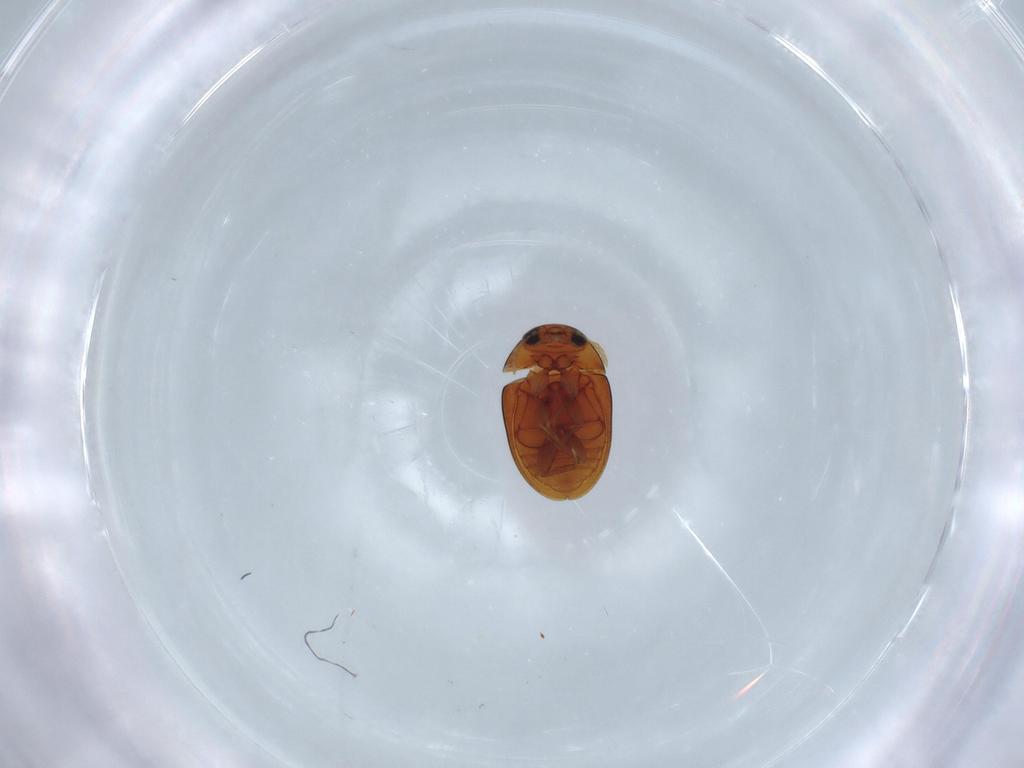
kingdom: Animalia
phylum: Arthropoda
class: Insecta
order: Coleoptera
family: Phalacridae
